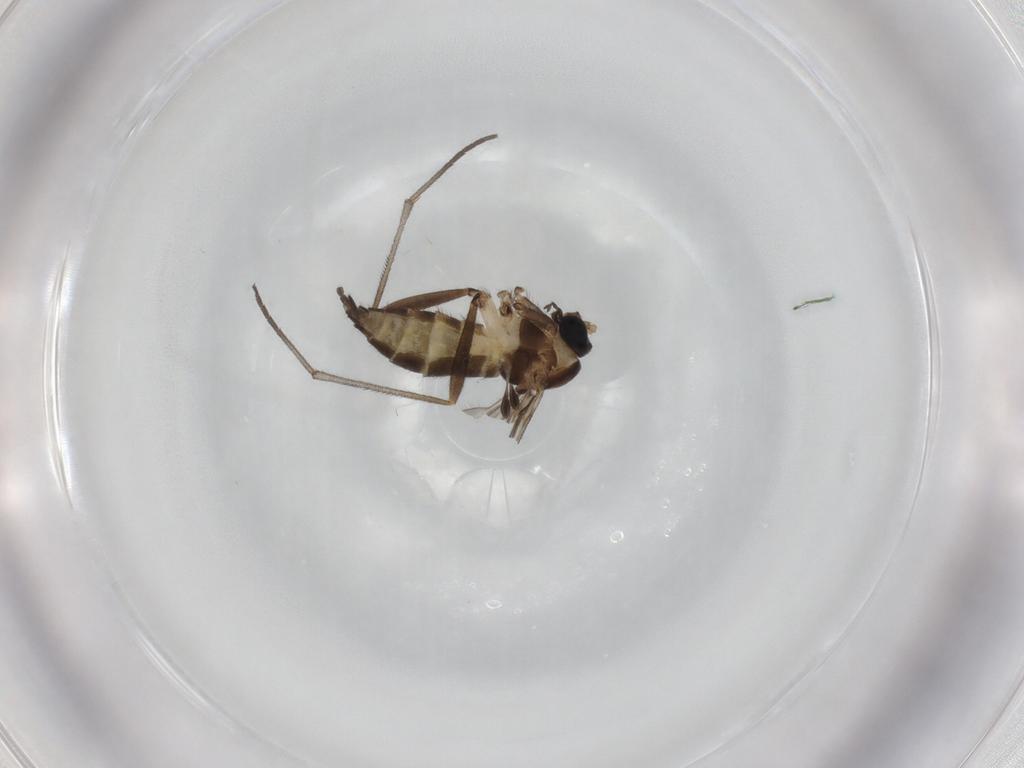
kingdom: Animalia
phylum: Arthropoda
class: Insecta
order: Diptera
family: Sciaridae
